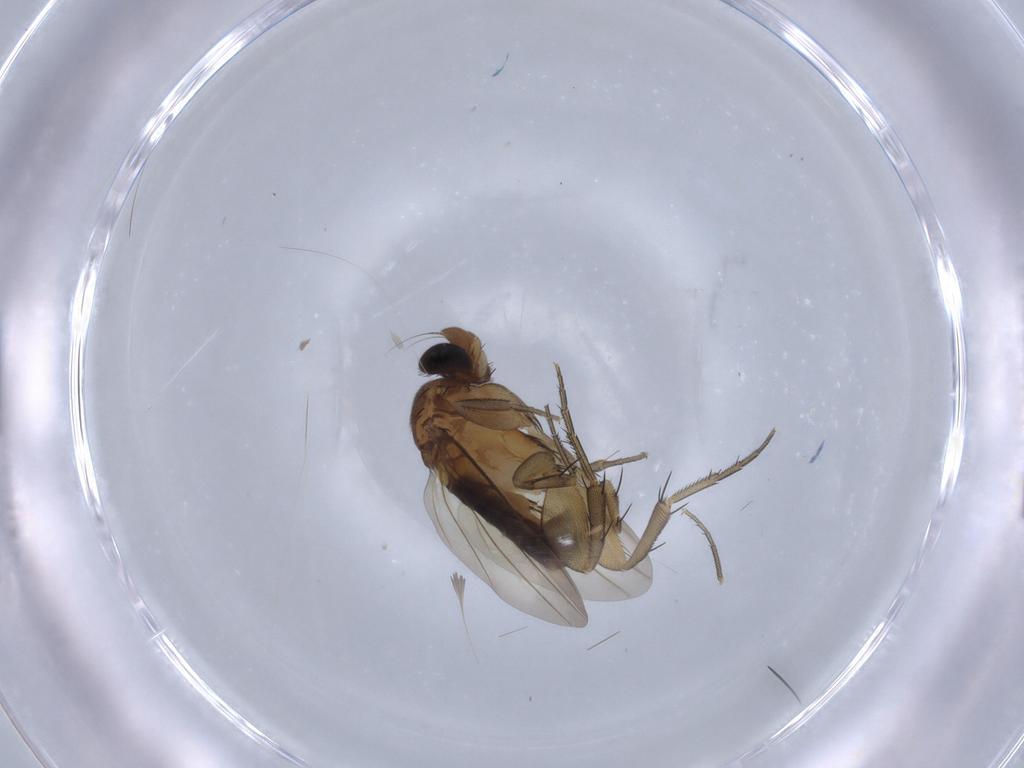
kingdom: Animalia
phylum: Arthropoda
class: Insecta
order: Diptera
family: Phoridae
